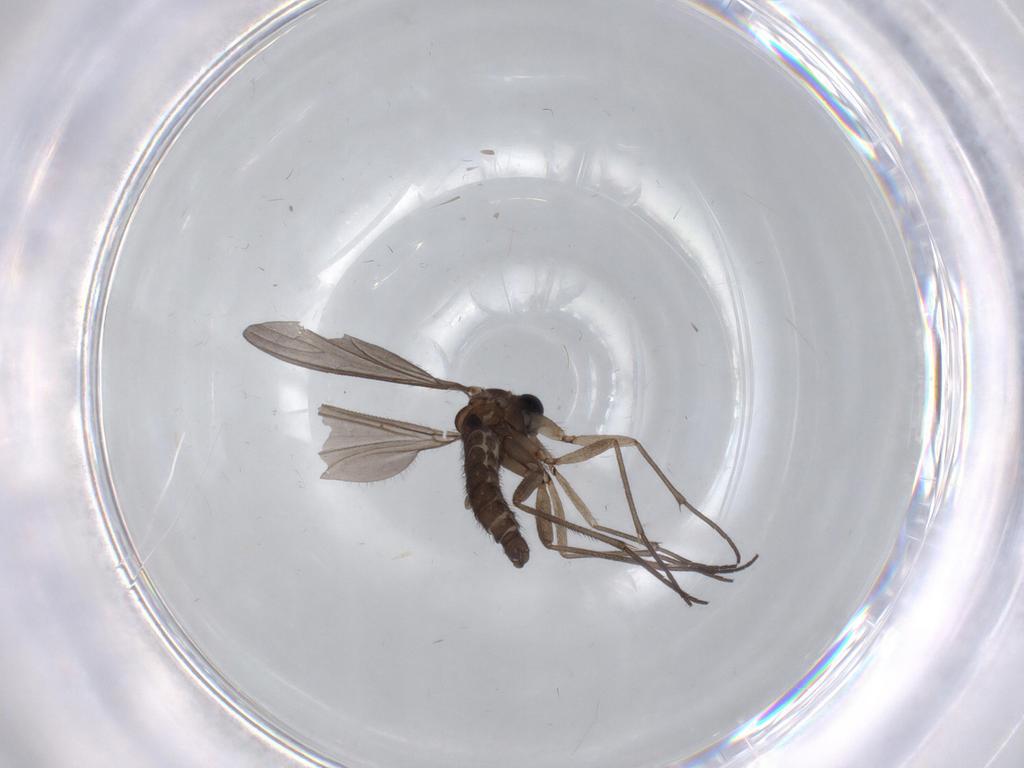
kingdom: Animalia
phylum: Arthropoda
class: Insecta
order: Diptera
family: Sciaridae
